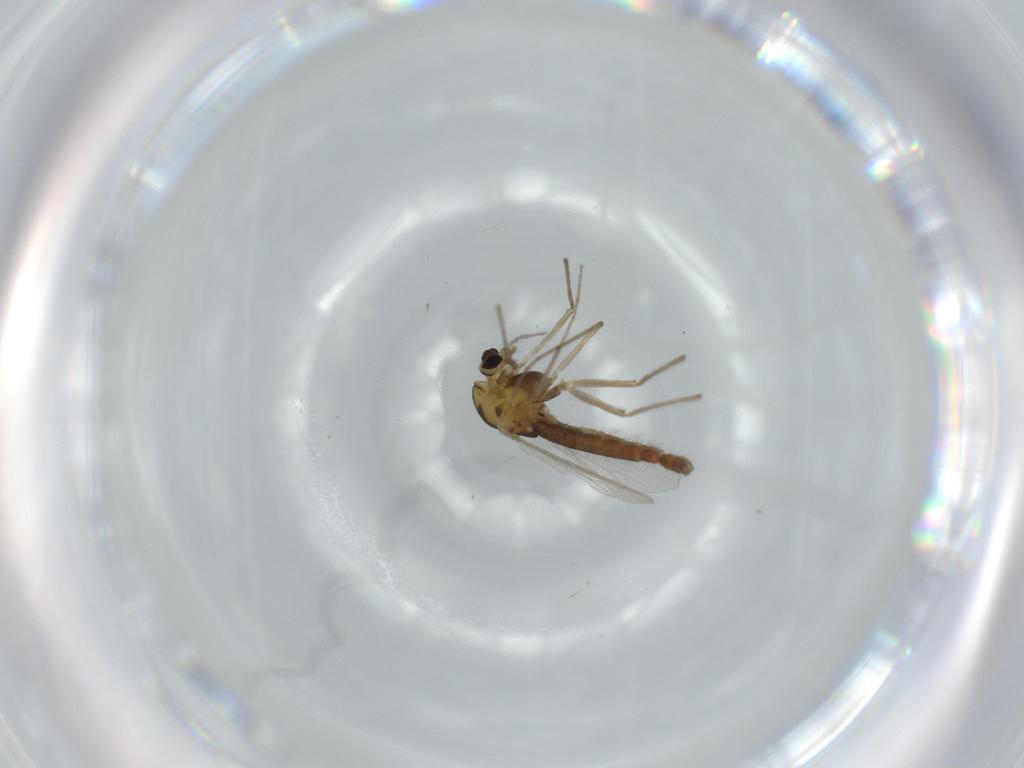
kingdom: Animalia
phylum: Arthropoda
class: Insecta
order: Diptera
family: Chironomidae
